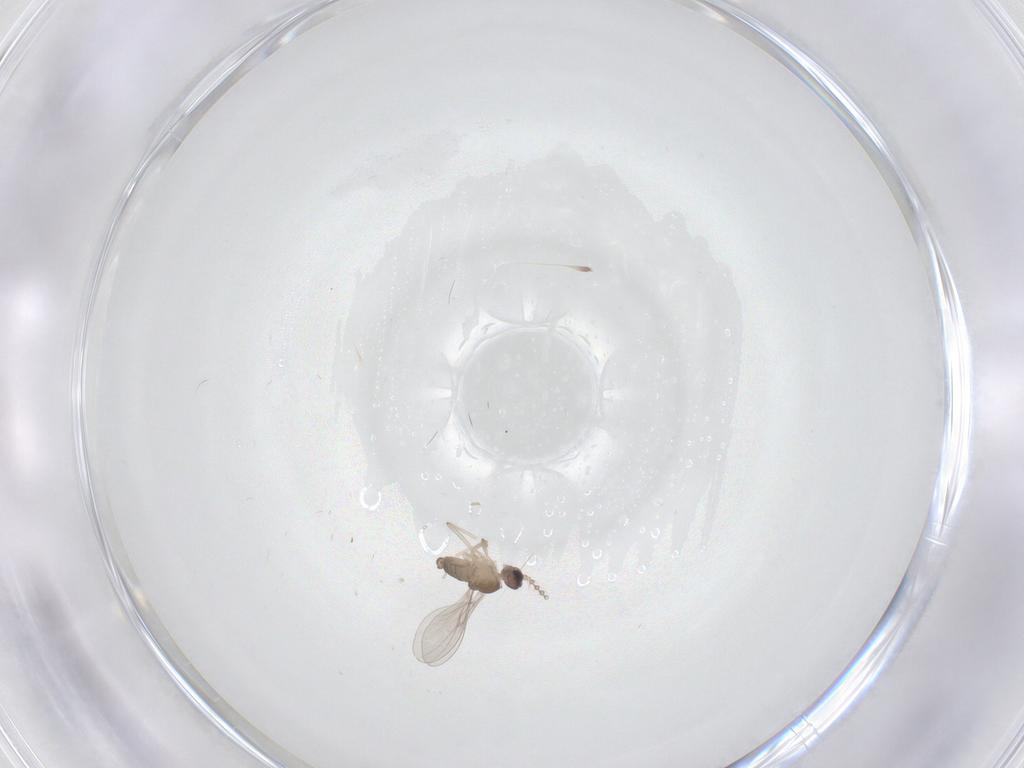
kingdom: Animalia
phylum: Arthropoda
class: Insecta
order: Diptera
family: Cecidomyiidae
